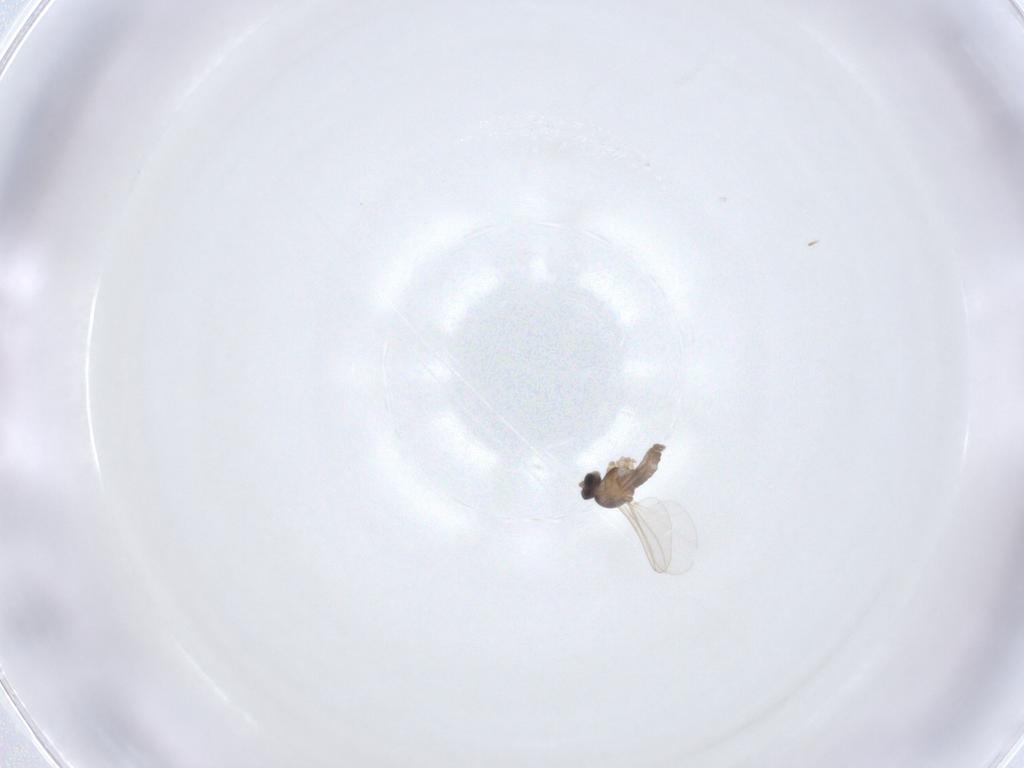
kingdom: Animalia
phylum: Arthropoda
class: Insecta
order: Diptera
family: Cecidomyiidae
